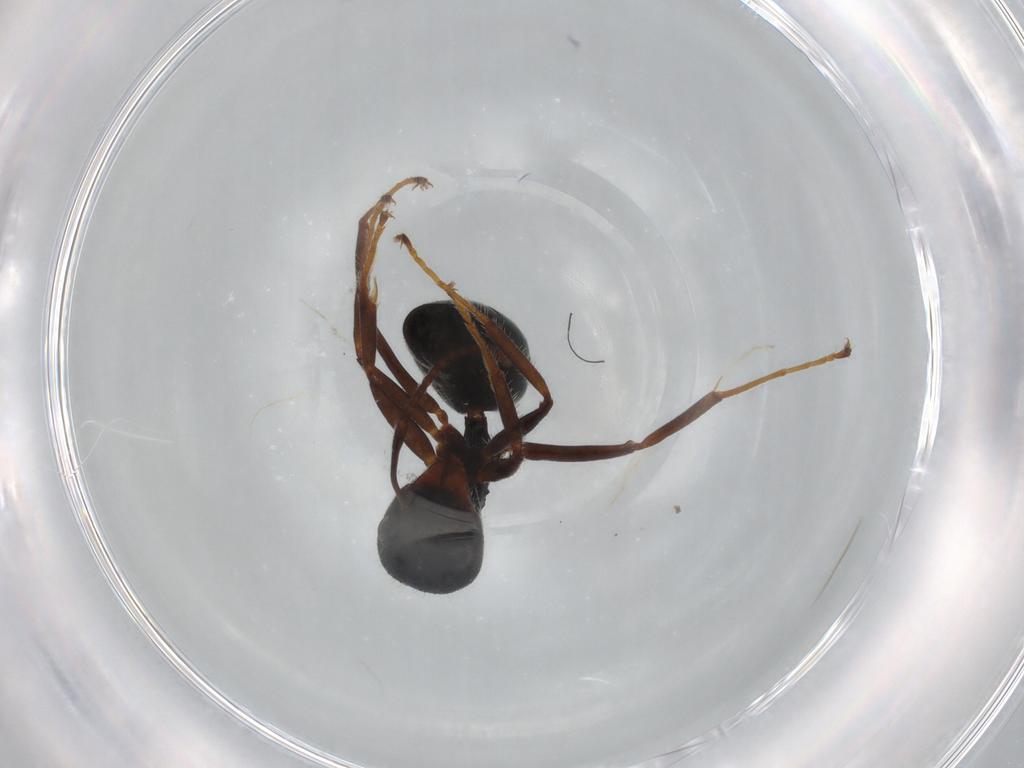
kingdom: Animalia
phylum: Arthropoda
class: Insecta
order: Hymenoptera
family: Formicidae
